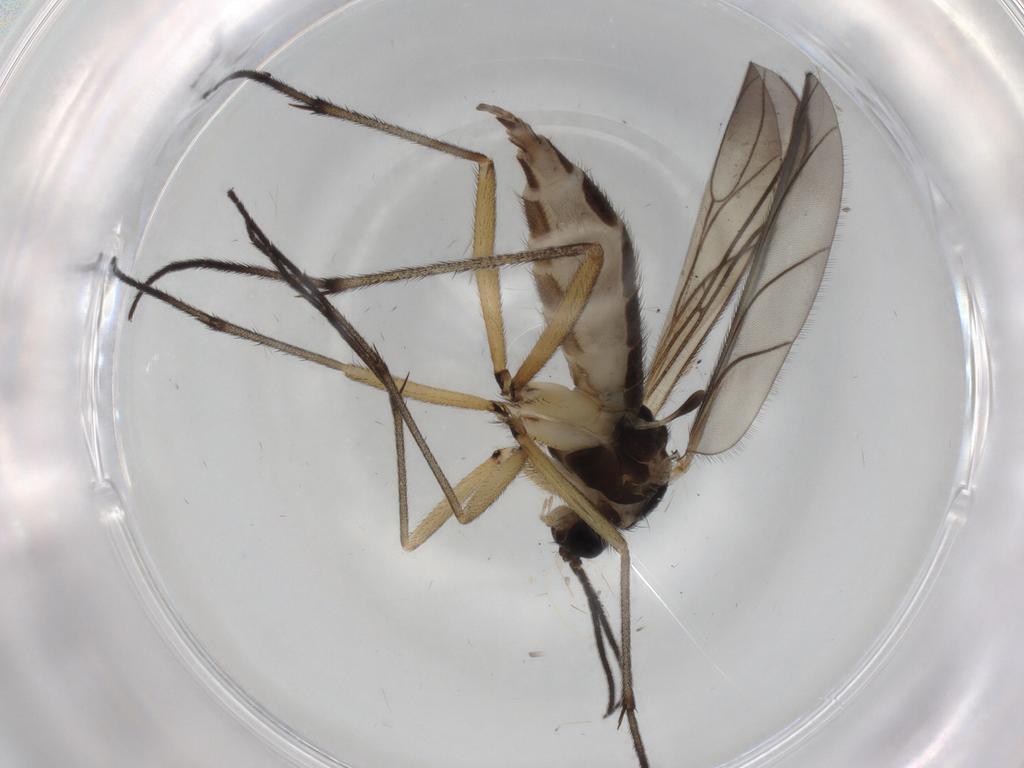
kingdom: Animalia
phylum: Arthropoda
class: Insecta
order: Diptera
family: Sciaridae
